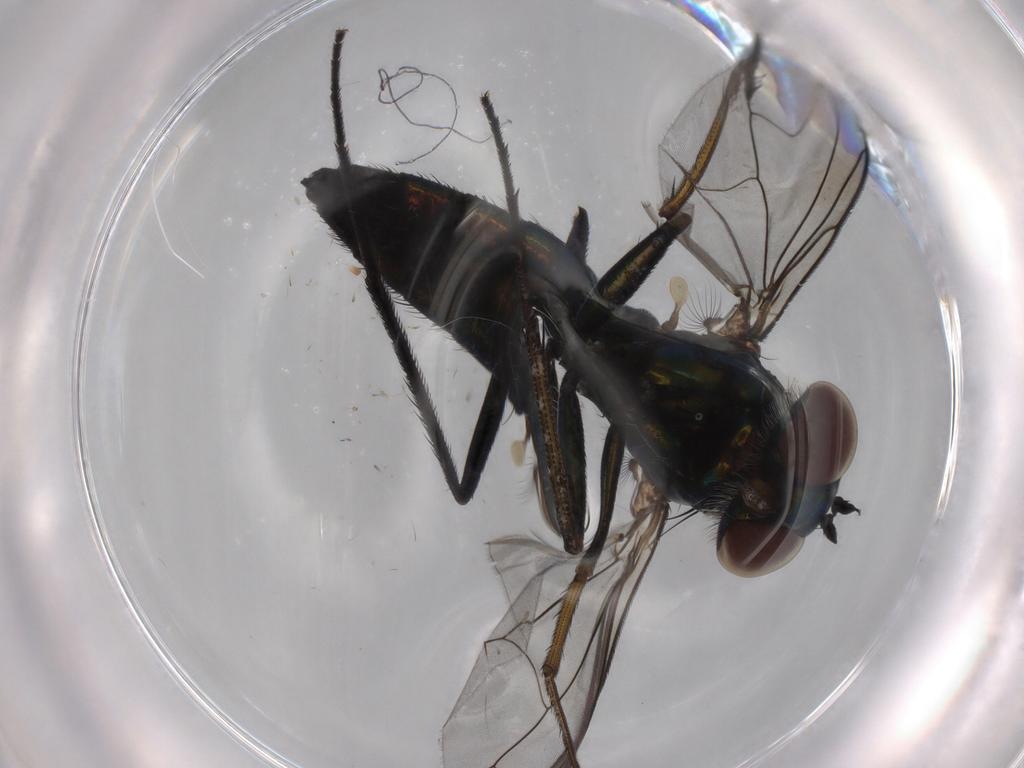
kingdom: Animalia
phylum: Arthropoda
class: Insecta
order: Diptera
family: Dolichopodidae
